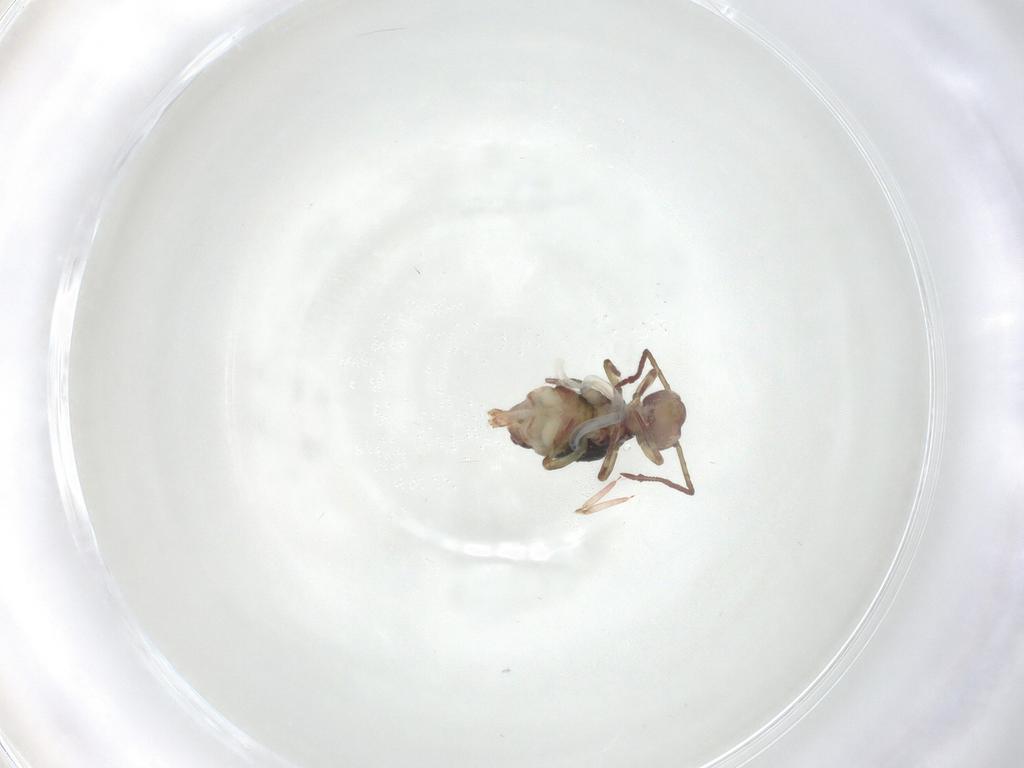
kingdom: Animalia
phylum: Arthropoda
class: Collembola
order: Symphypleona
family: Dicyrtomidae
